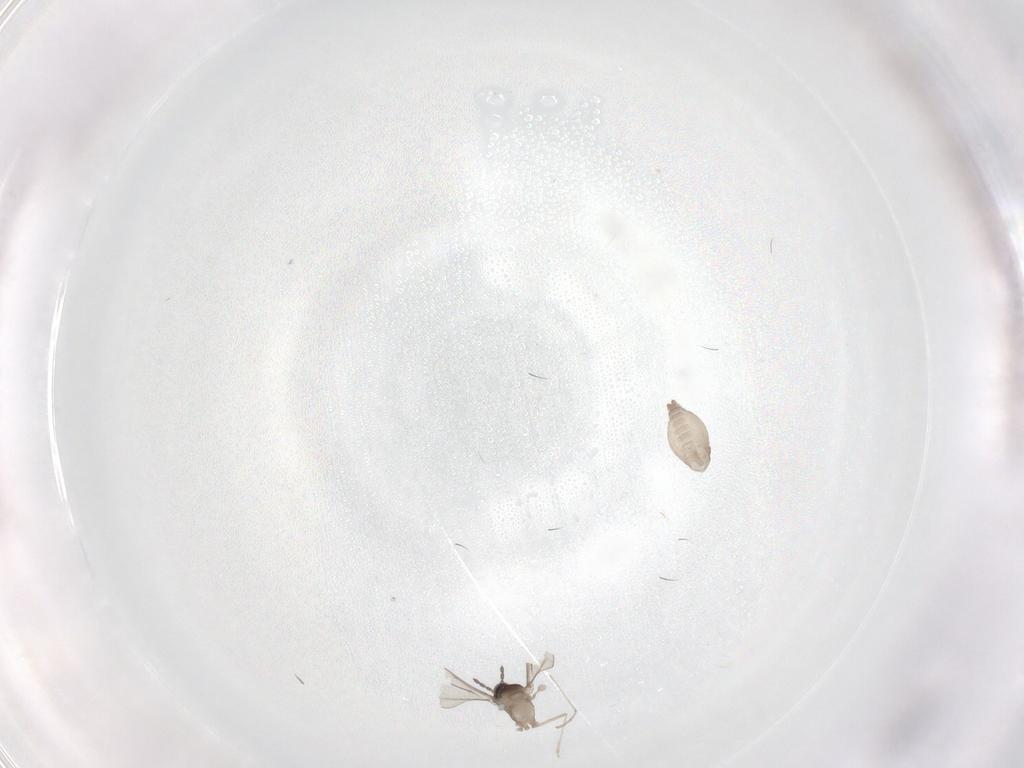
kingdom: Animalia
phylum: Arthropoda
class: Insecta
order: Diptera
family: Cecidomyiidae
